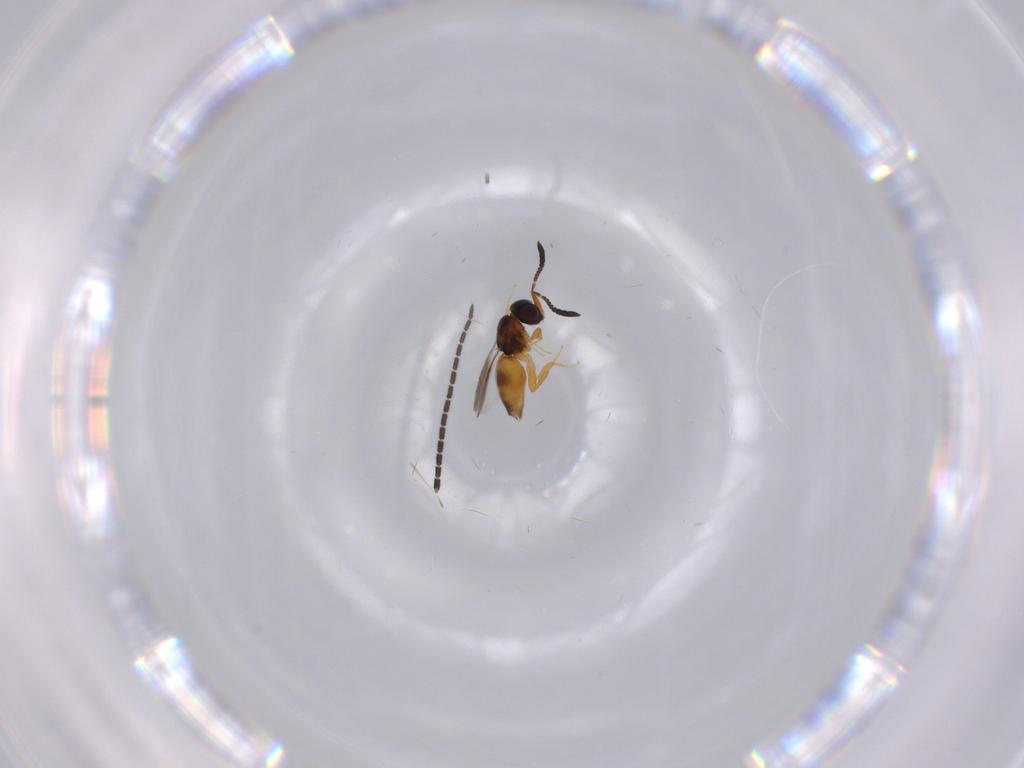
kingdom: Animalia
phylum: Arthropoda
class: Insecta
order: Hymenoptera
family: Ceraphronidae
